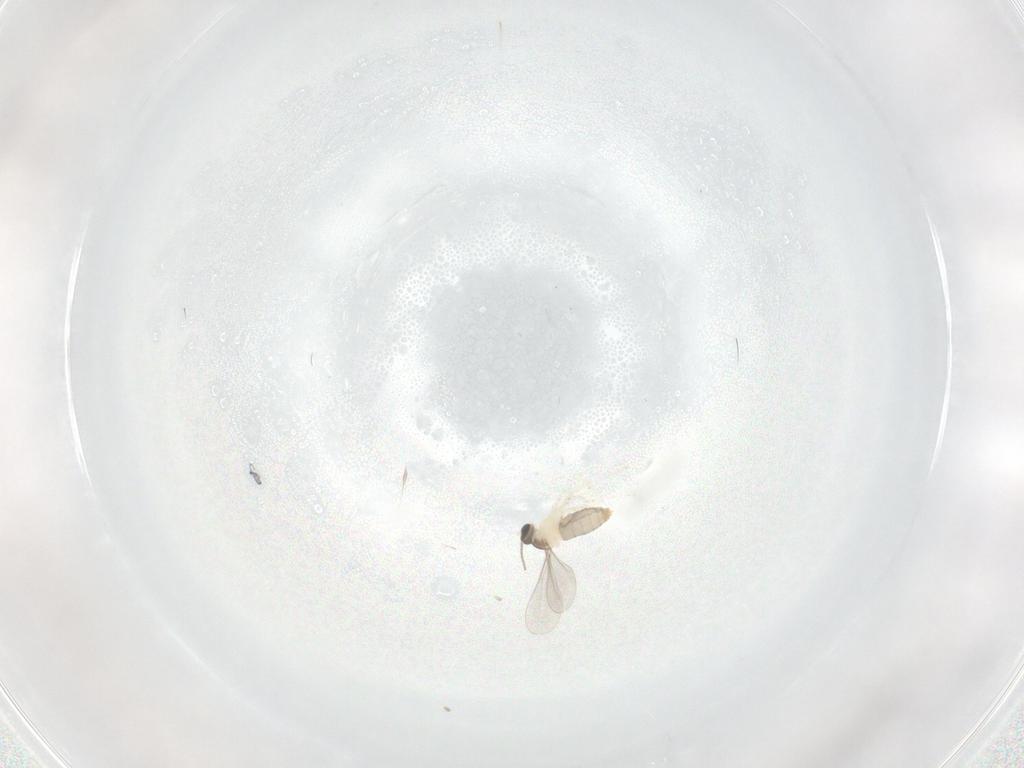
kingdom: Animalia
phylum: Arthropoda
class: Insecta
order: Diptera
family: Cecidomyiidae
